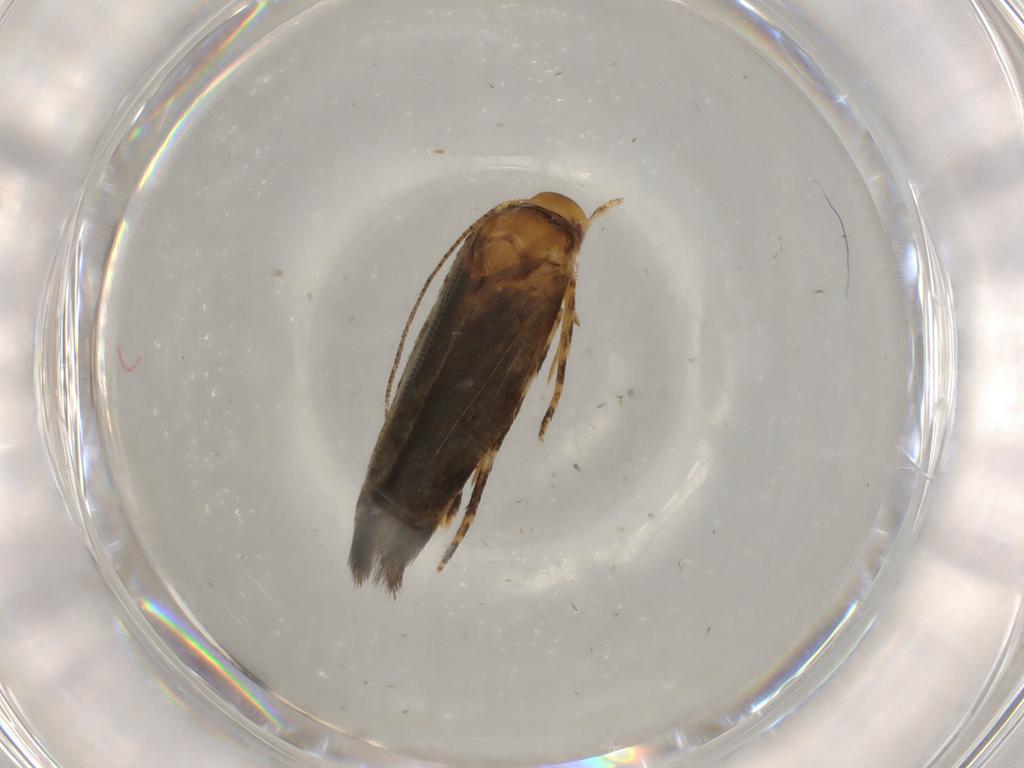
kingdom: Animalia
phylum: Arthropoda
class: Insecta
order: Lepidoptera
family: Momphidae
